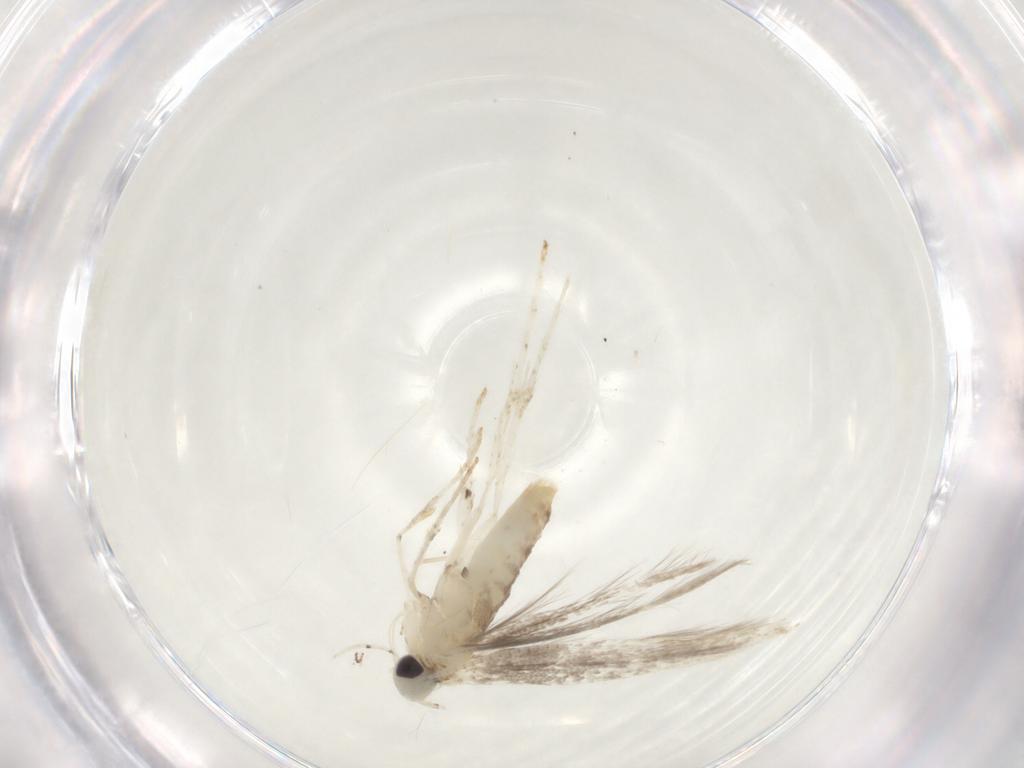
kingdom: Animalia
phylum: Arthropoda
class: Insecta
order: Lepidoptera
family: Gracillariidae
